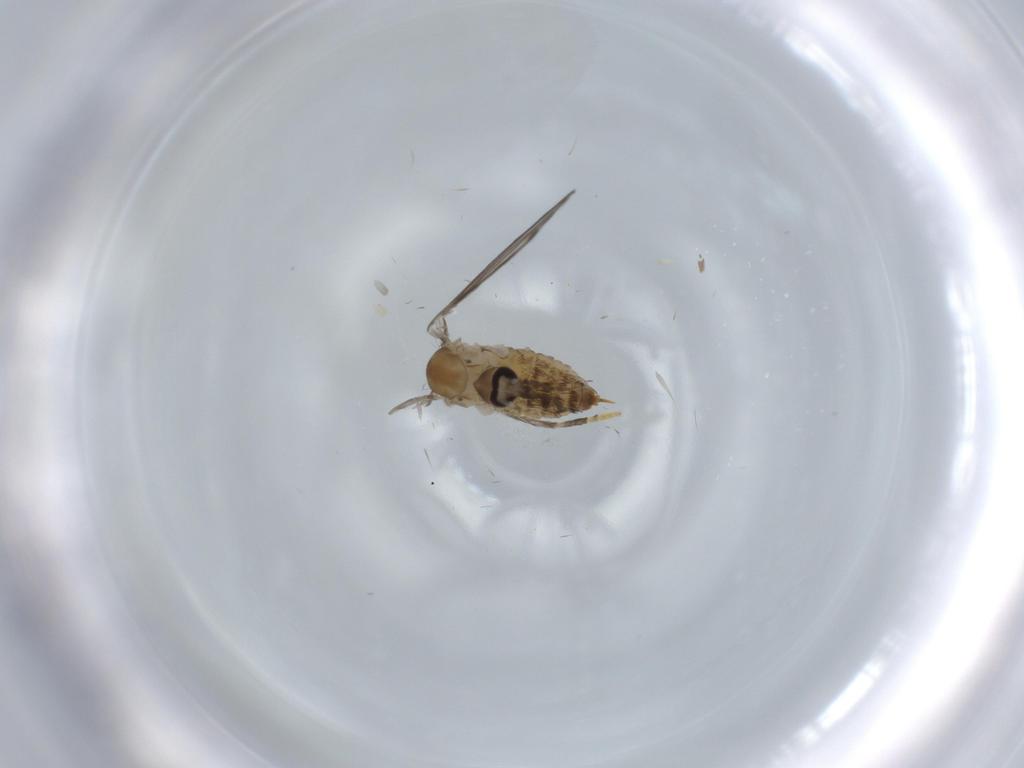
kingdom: Animalia
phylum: Arthropoda
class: Insecta
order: Diptera
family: Psychodidae
